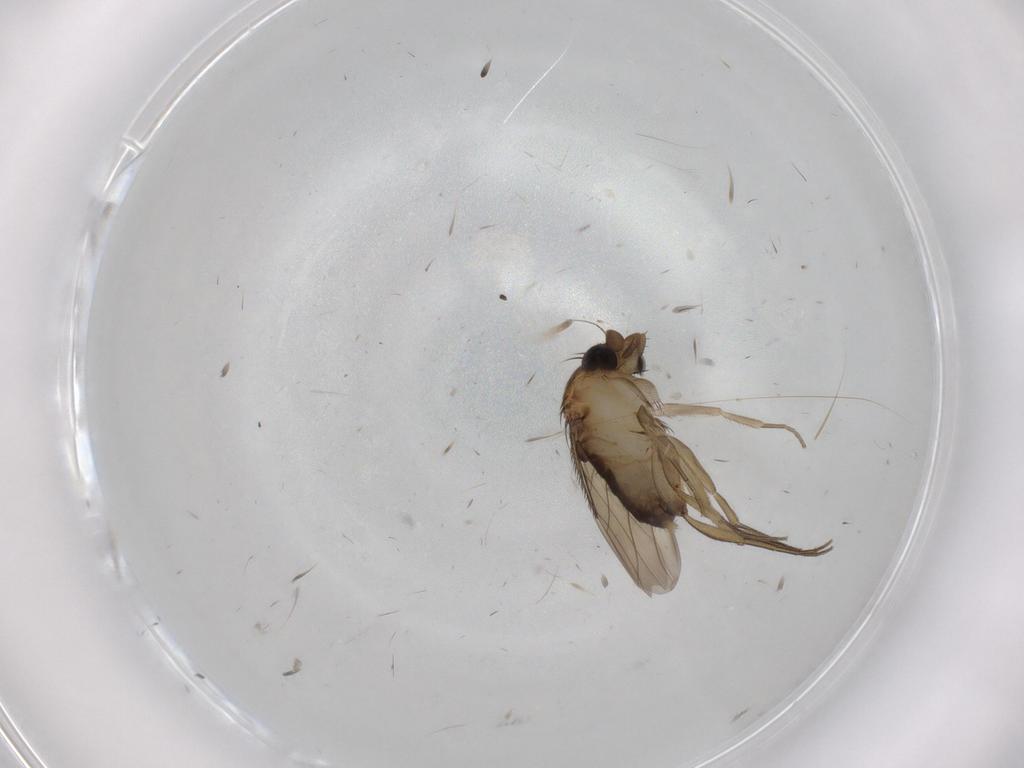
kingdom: Animalia
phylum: Arthropoda
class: Insecta
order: Diptera
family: Phoridae
